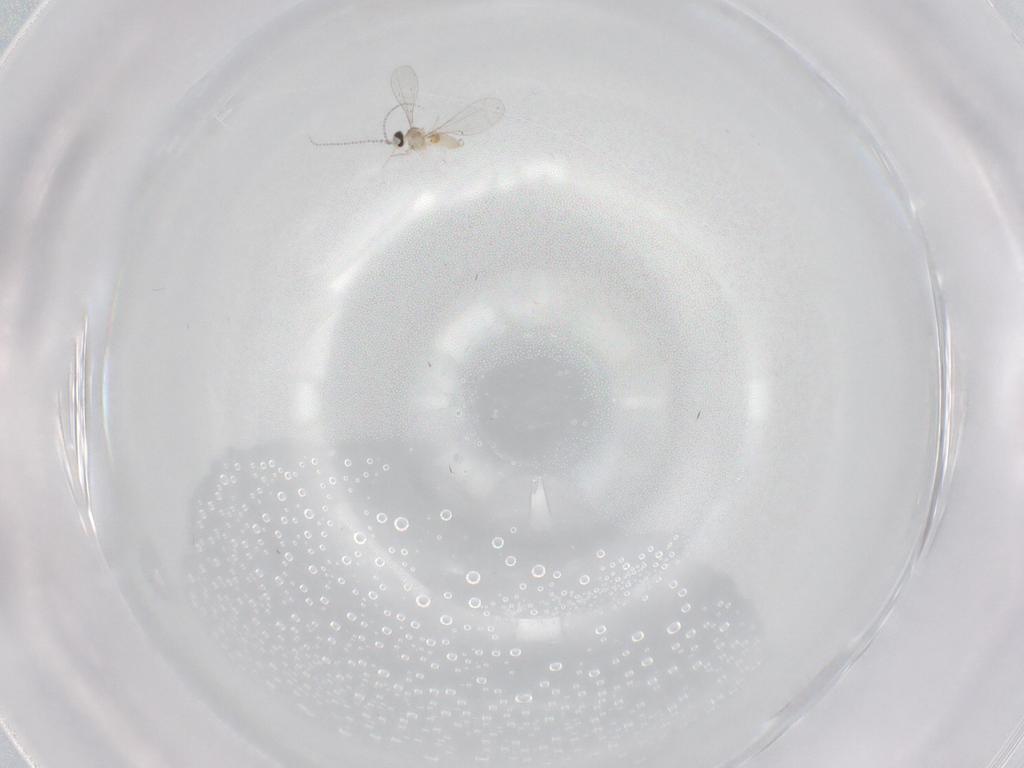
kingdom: Animalia
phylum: Arthropoda
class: Insecta
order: Diptera
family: Cecidomyiidae
